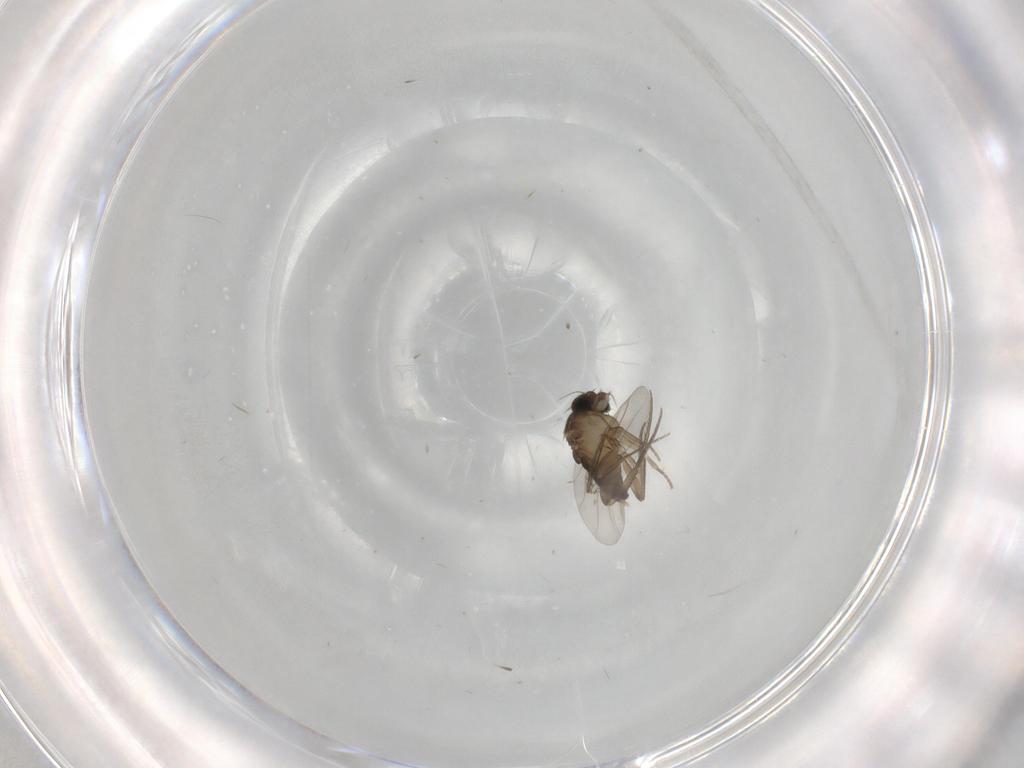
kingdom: Animalia
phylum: Arthropoda
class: Insecta
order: Diptera
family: Phoridae
